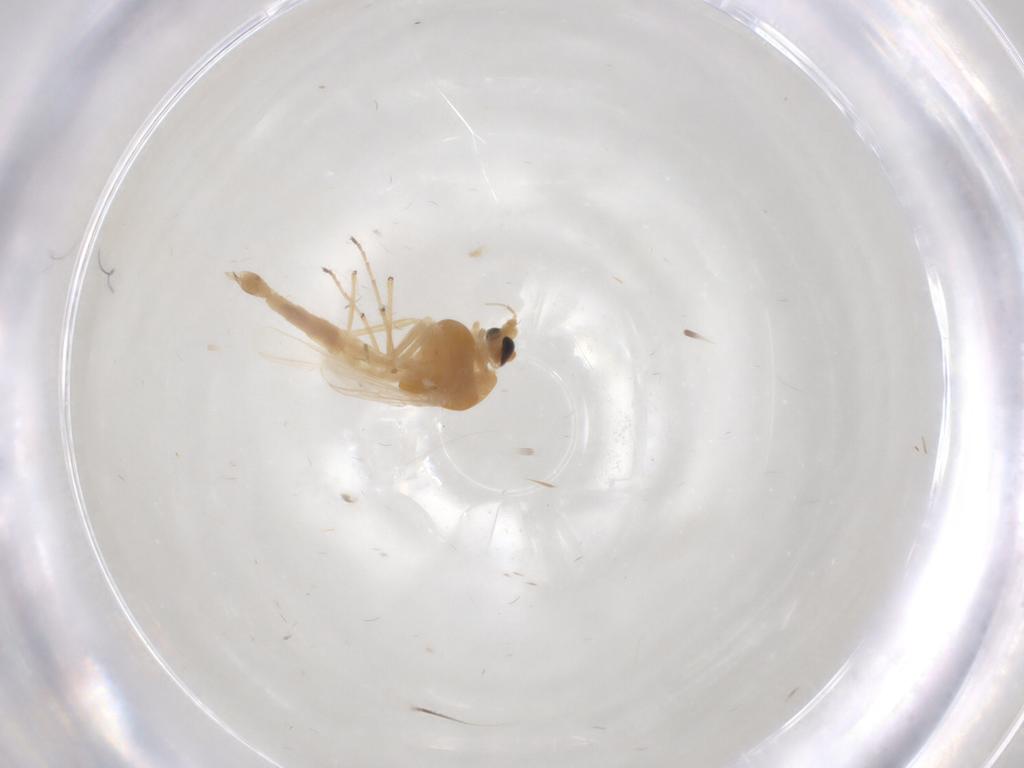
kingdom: Animalia
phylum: Arthropoda
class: Insecta
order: Diptera
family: Chironomidae
